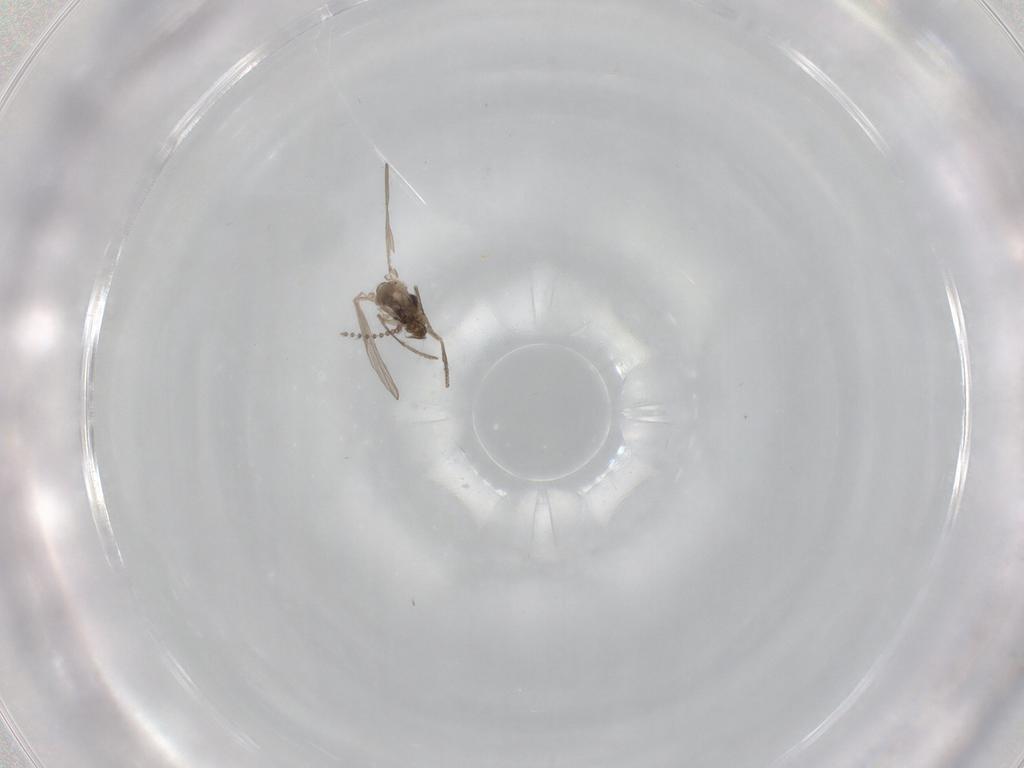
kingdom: Animalia
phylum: Arthropoda
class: Insecta
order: Diptera
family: Psychodidae
